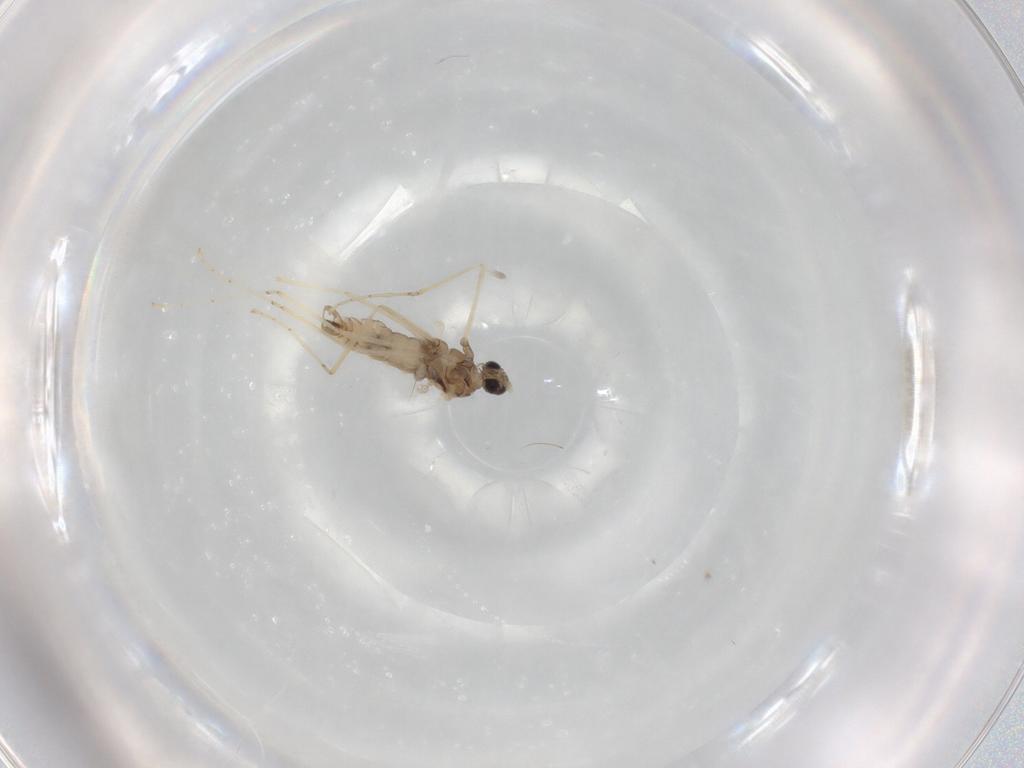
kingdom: Animalia
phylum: Arthropoda
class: Insecta
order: Diptera
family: Cecidomyiidae
